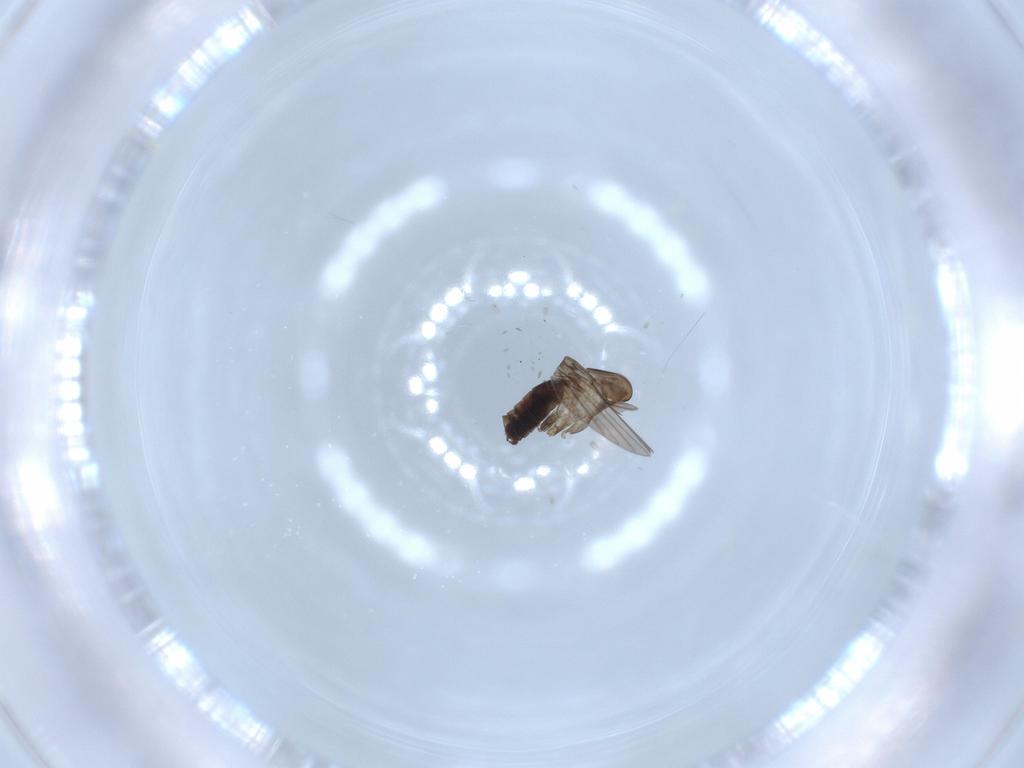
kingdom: Animalia
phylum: Arthropoda
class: Insecta
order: Diptera
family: Psychodidae
